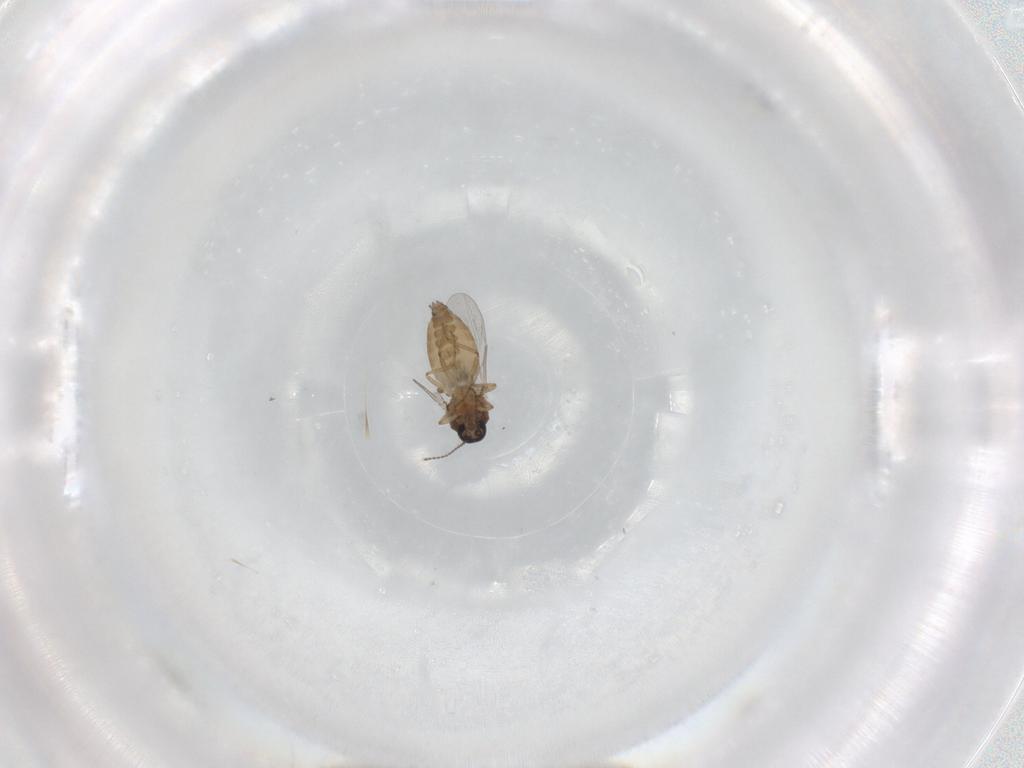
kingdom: Animalia
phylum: Arthropoda
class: Insecta
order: Diptera
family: Ceratopogonidae
